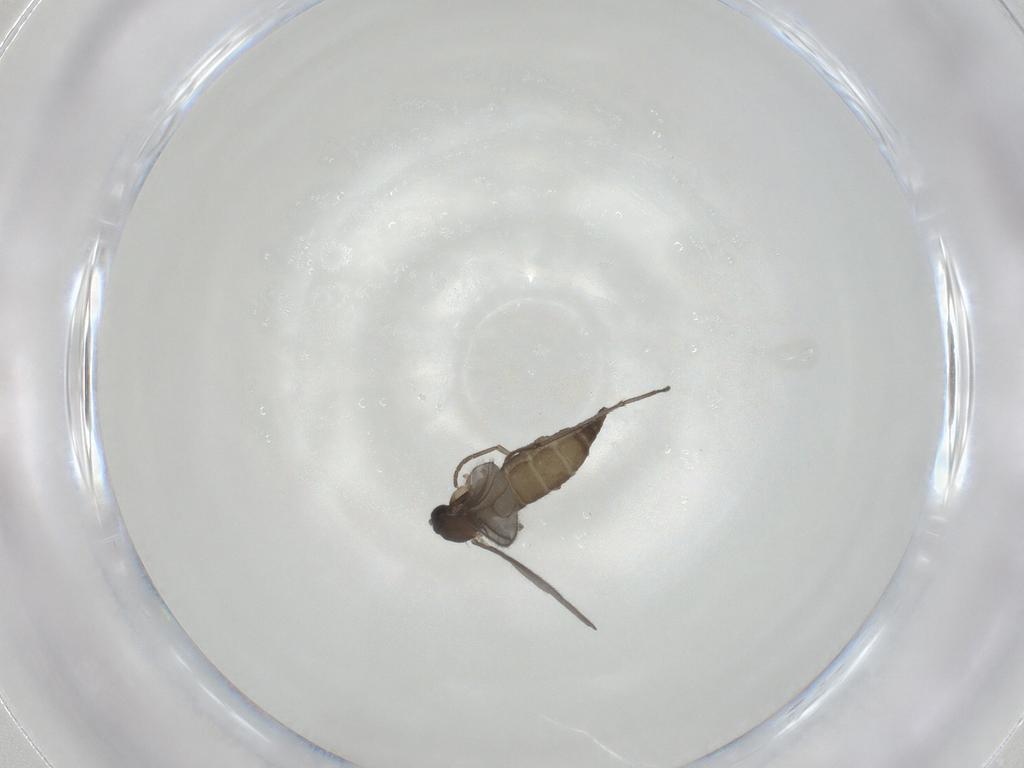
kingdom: Animalia
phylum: Arthropoda
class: Insecta
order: Diptera
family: Sciaridae
